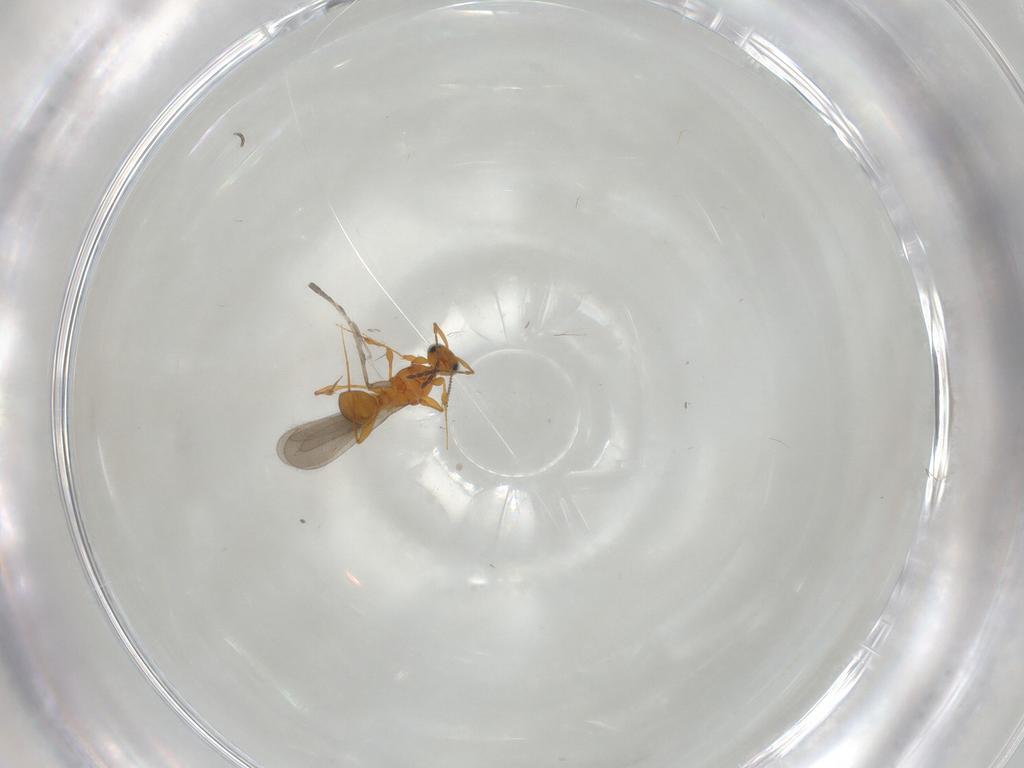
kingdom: Animalia
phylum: Arthropoda
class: Insecta
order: Hymenoptera
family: Platygastridae
